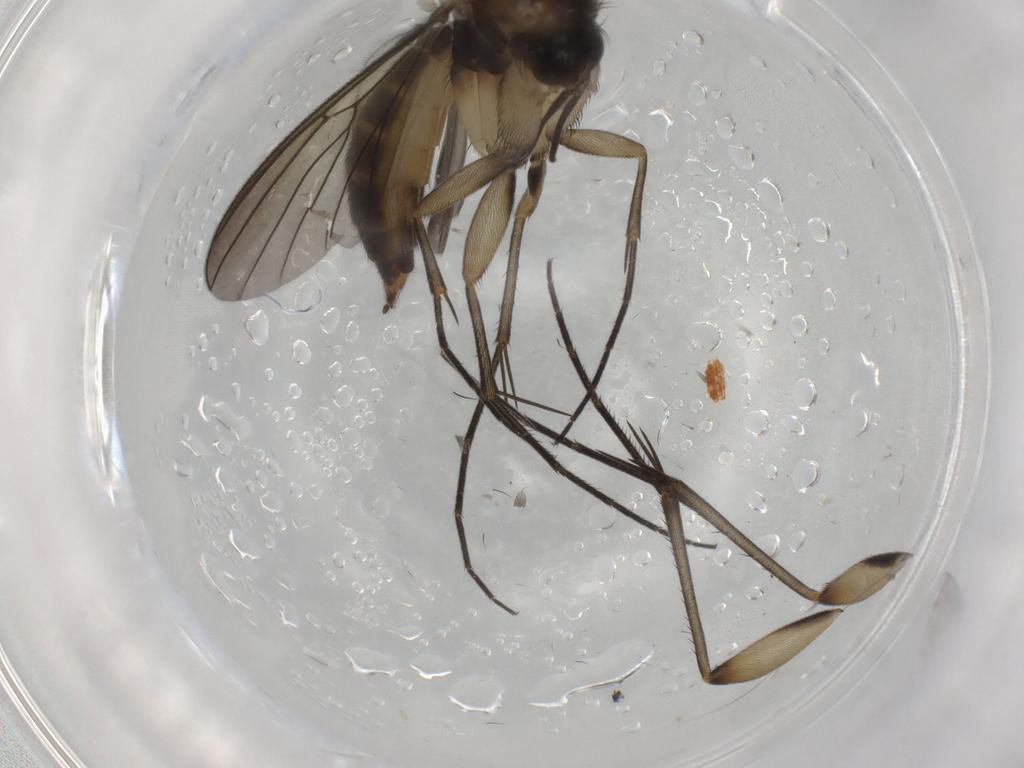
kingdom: Animalia
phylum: Arthropoda
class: Insecta
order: Diptera
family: Mycetophilidae
